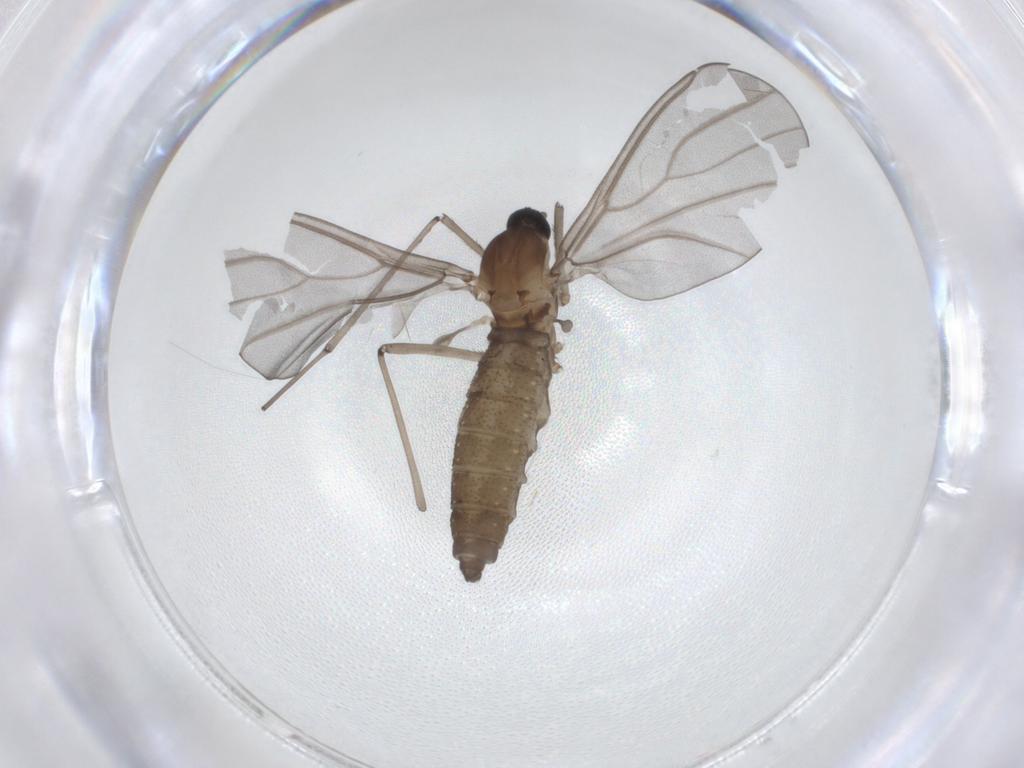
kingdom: Animalia
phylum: Arthropoda
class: Insecta
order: Diptera
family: Cecidomyiidae
